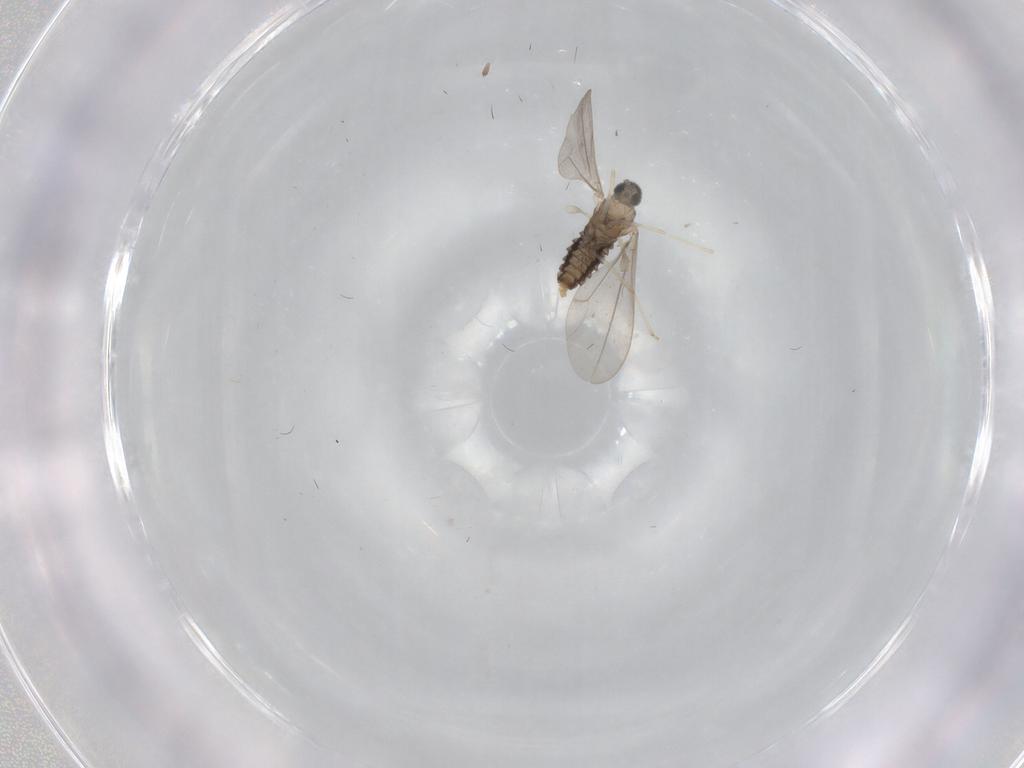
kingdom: Animalia
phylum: Arthropoda
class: Insecta
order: Diptera
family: Cecidomyiidae
